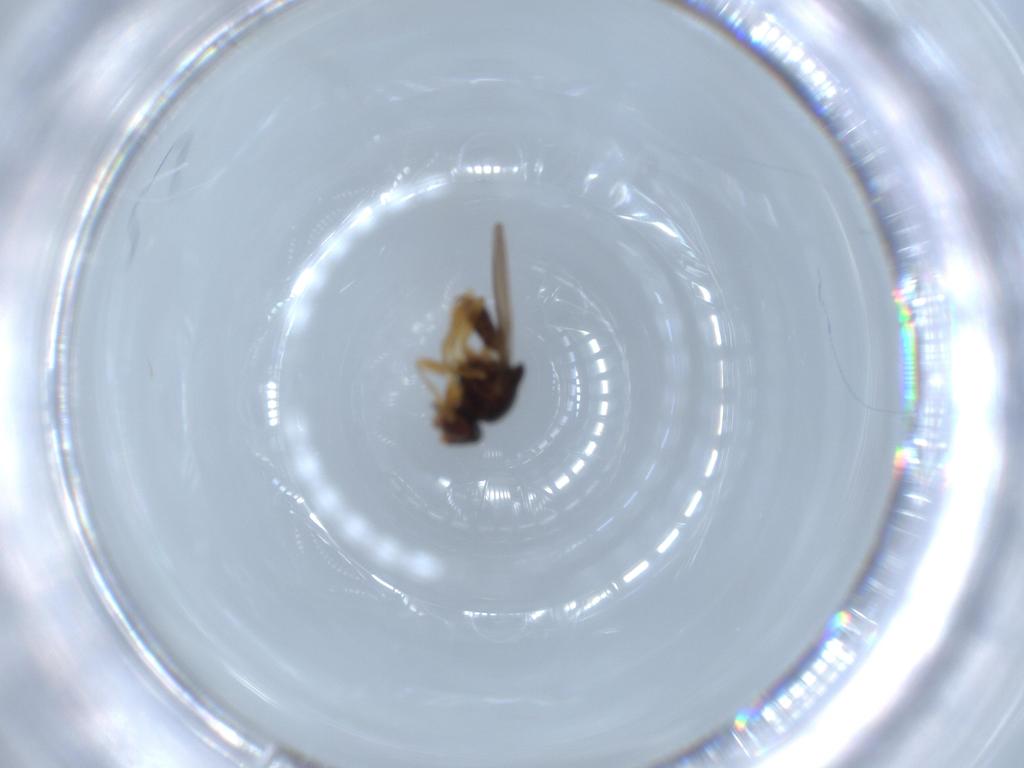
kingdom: Animalia
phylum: Arthropoda
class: Insecta
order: Diptera
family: Chloropidae
